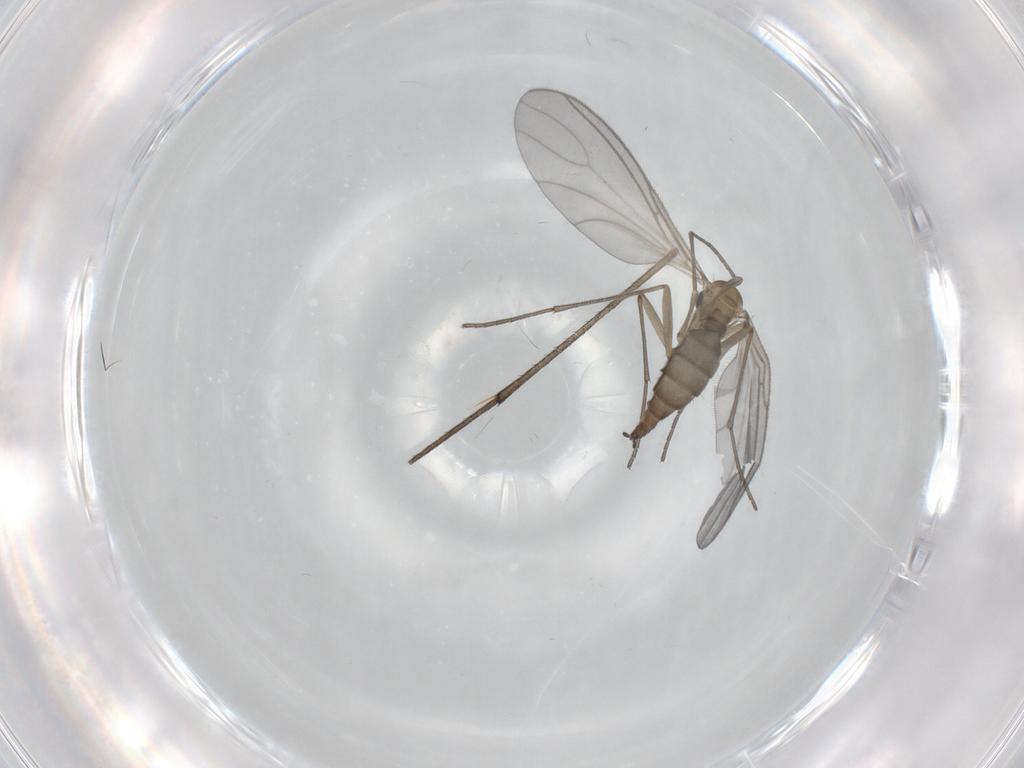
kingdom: Animalia
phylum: Arthropoda
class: Insecta
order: Diptera
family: Sciaridae
